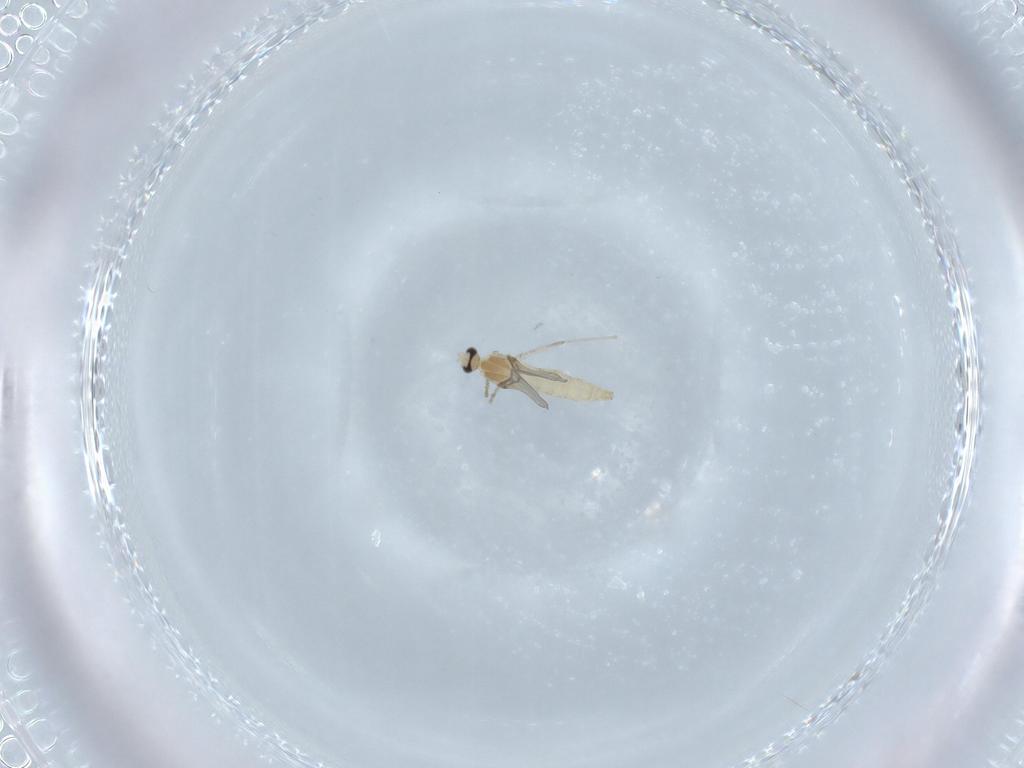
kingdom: Animalia
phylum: Arthropoda
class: Insecta
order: Diptera
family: Cecidomyiidae
